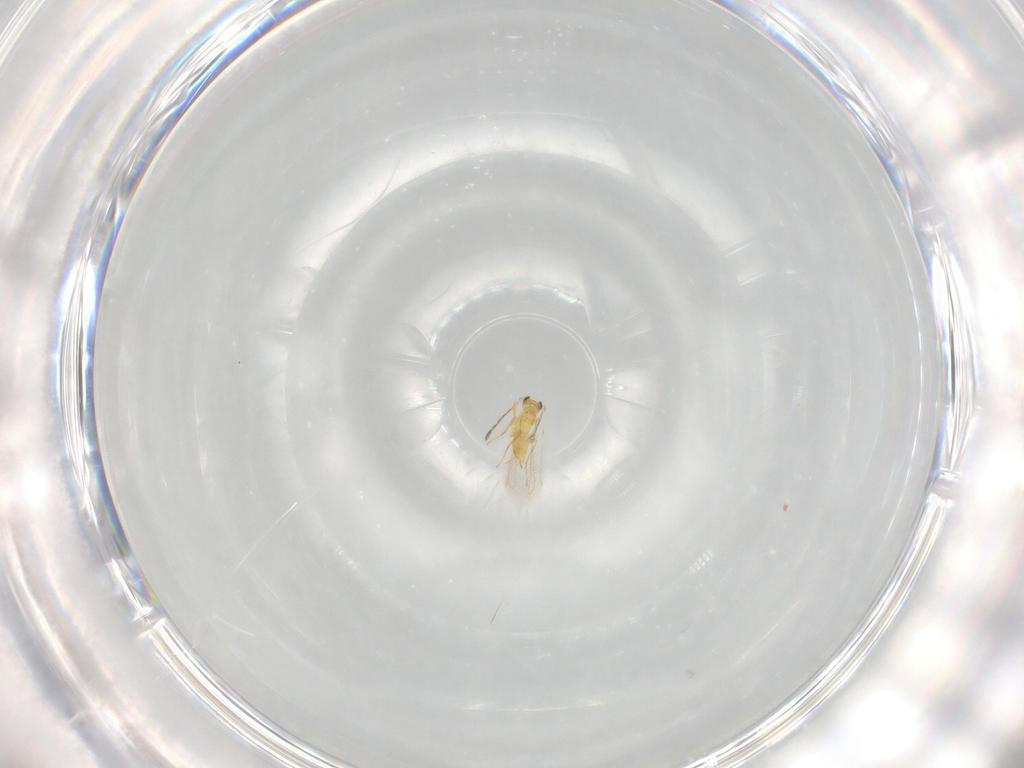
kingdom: Animalia
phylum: Arthropoda
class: Insecta
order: Hymenoptera
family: Mymaridae
